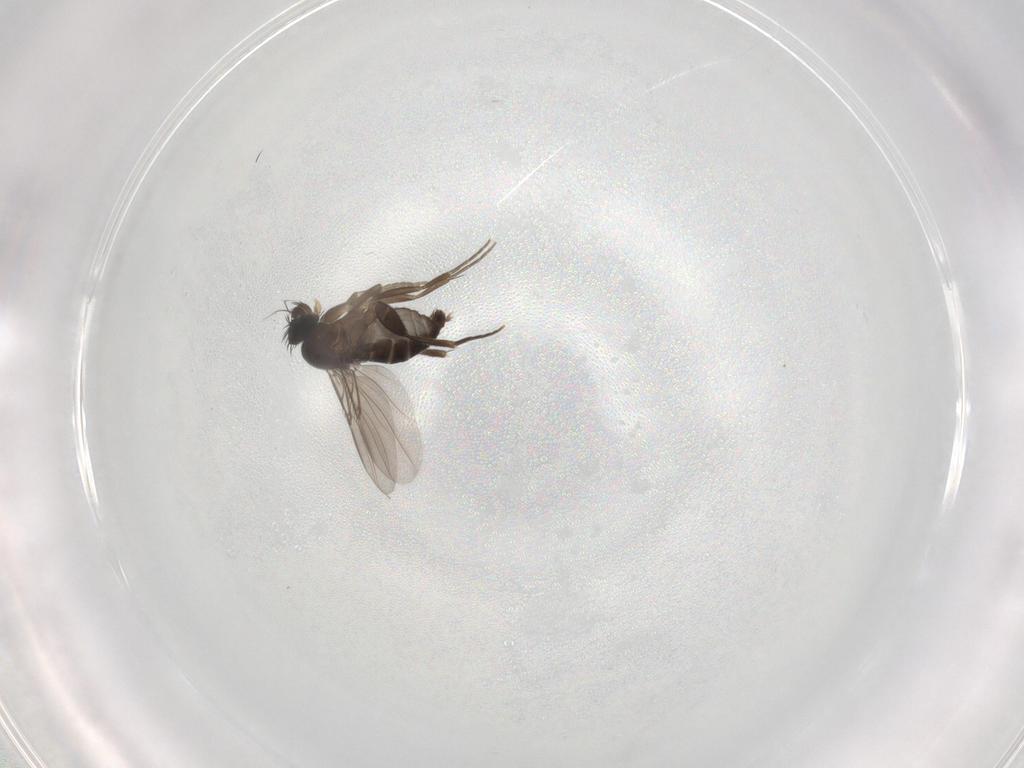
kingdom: Animalia
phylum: Arthropoda
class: Insecta
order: Diptera
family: Phoridae
